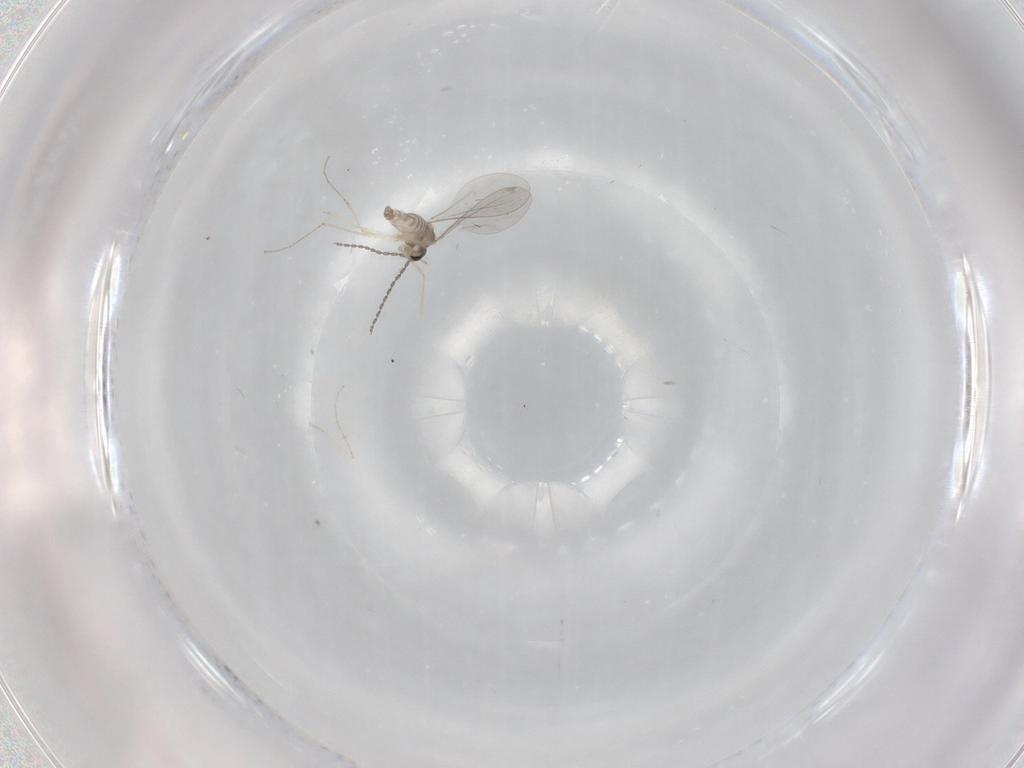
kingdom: Animalia
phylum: Arthropoda
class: Insecta
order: Diptera
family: Cecidomyiidae
